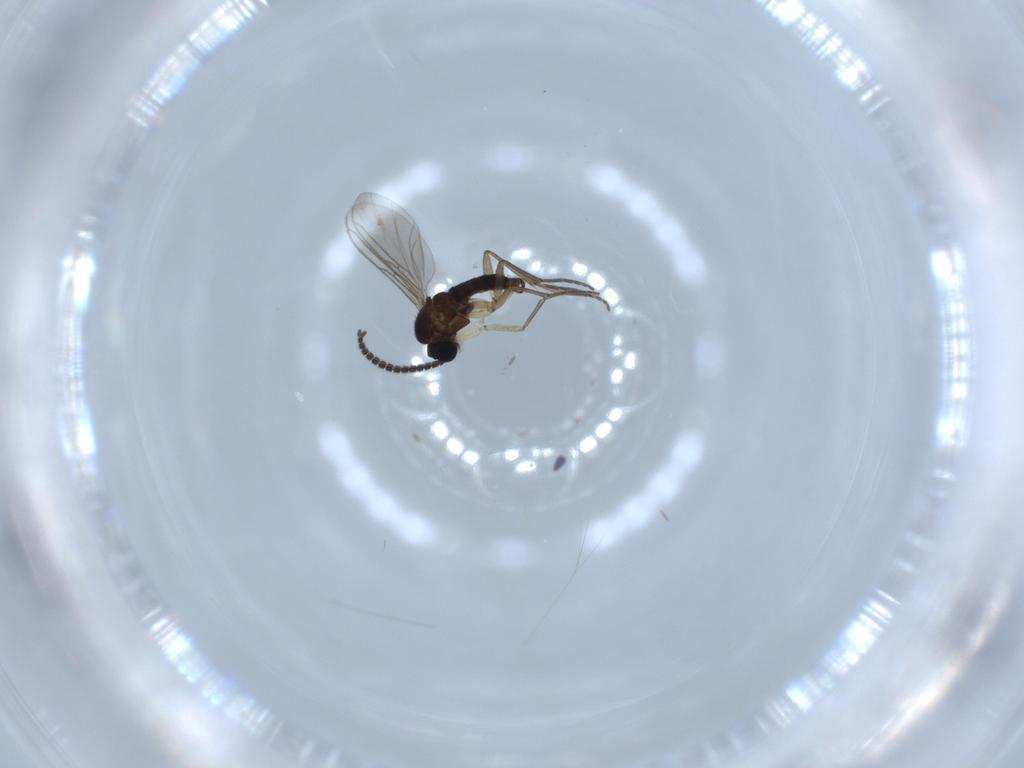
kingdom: Animalia
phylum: Arthropoda
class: Insecta
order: Diptera
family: Sciaridae
